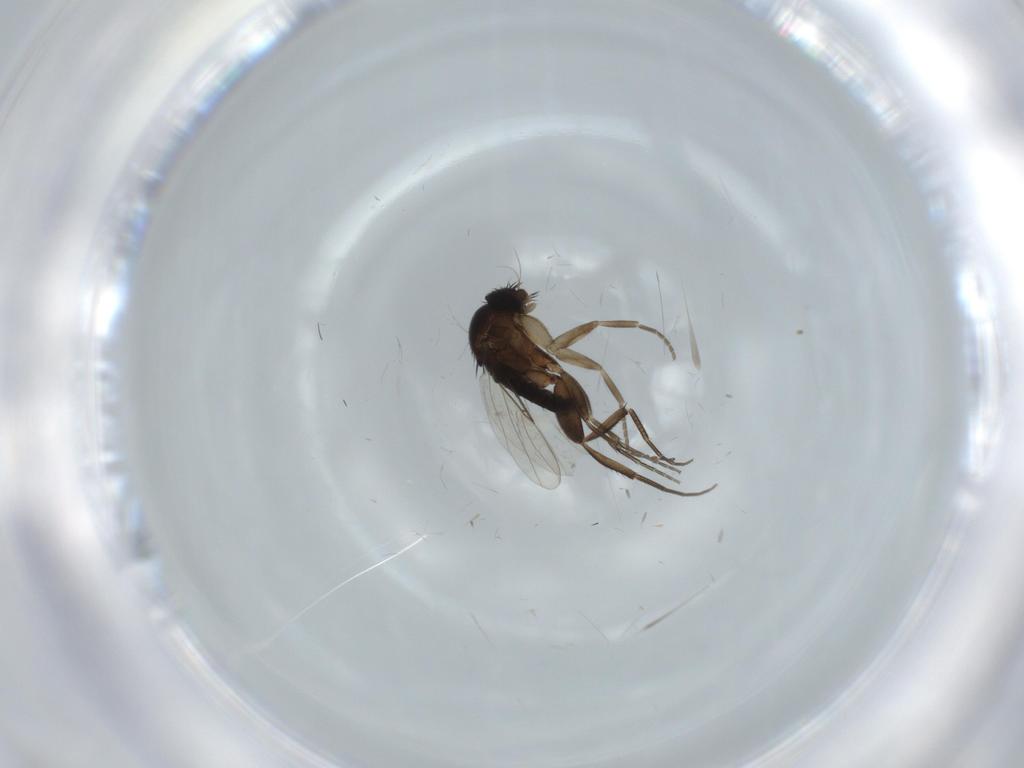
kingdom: Animalia
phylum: Arthropoda
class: Insecta
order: Diptera
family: Phoridae
